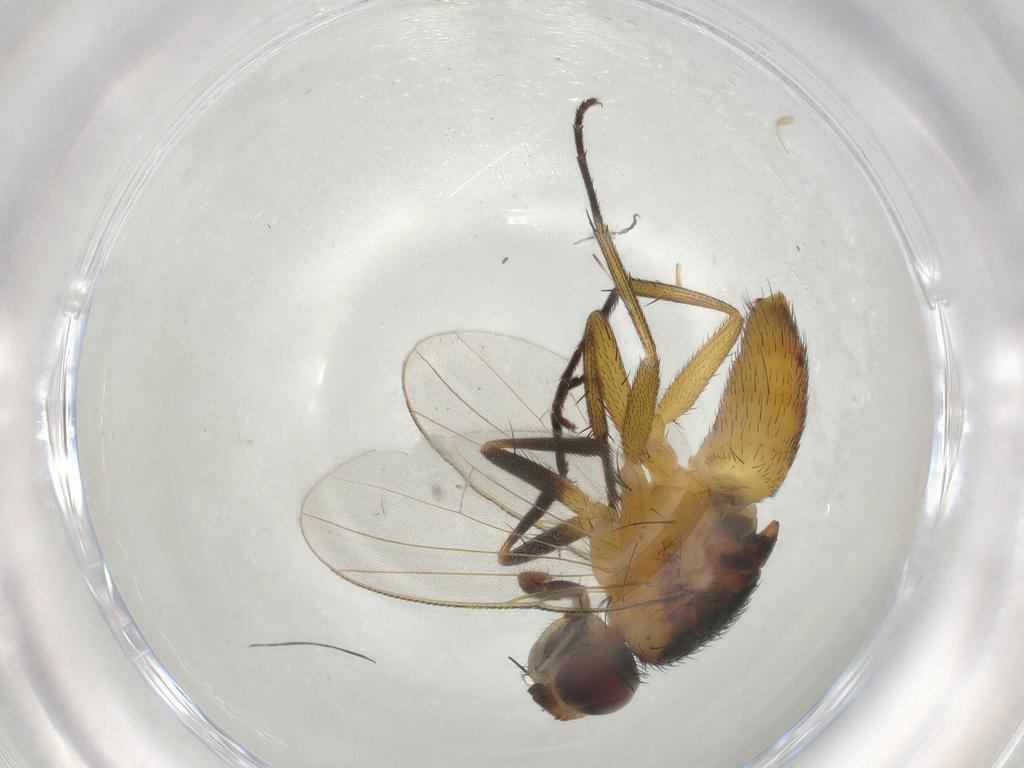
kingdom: Animalia
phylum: Arthropoda
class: Insecta
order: Diptera
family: Muscidae
